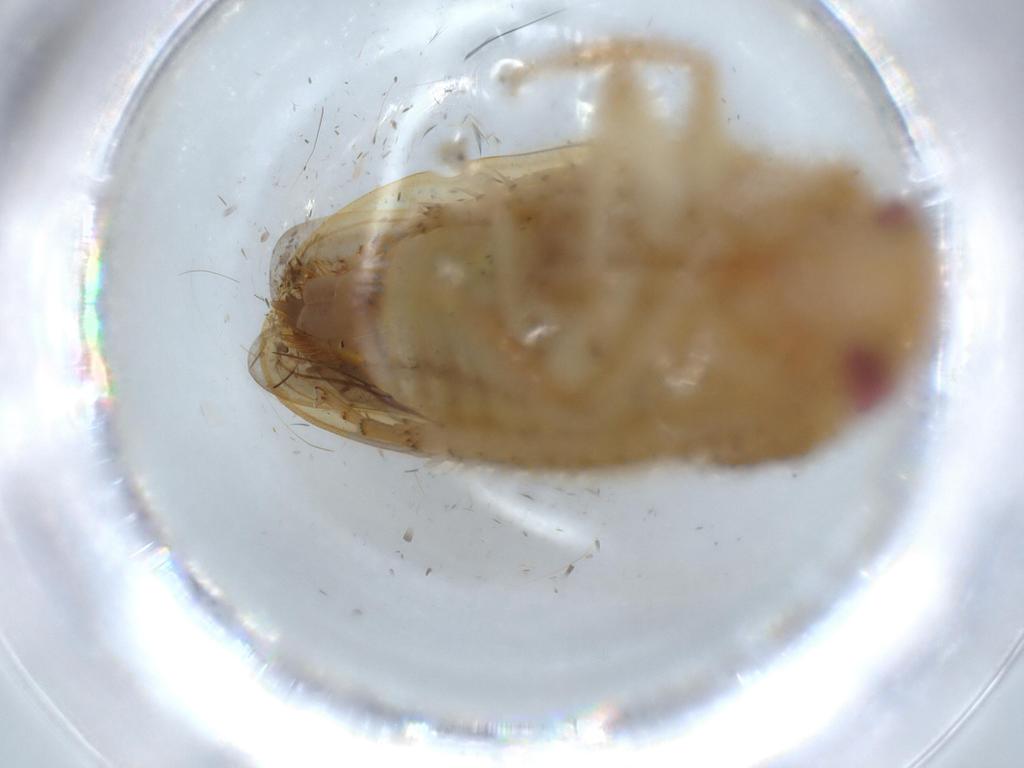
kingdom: Animalia
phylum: Arthropoda
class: Insecta
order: Hemiptera
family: Cicadellidae
